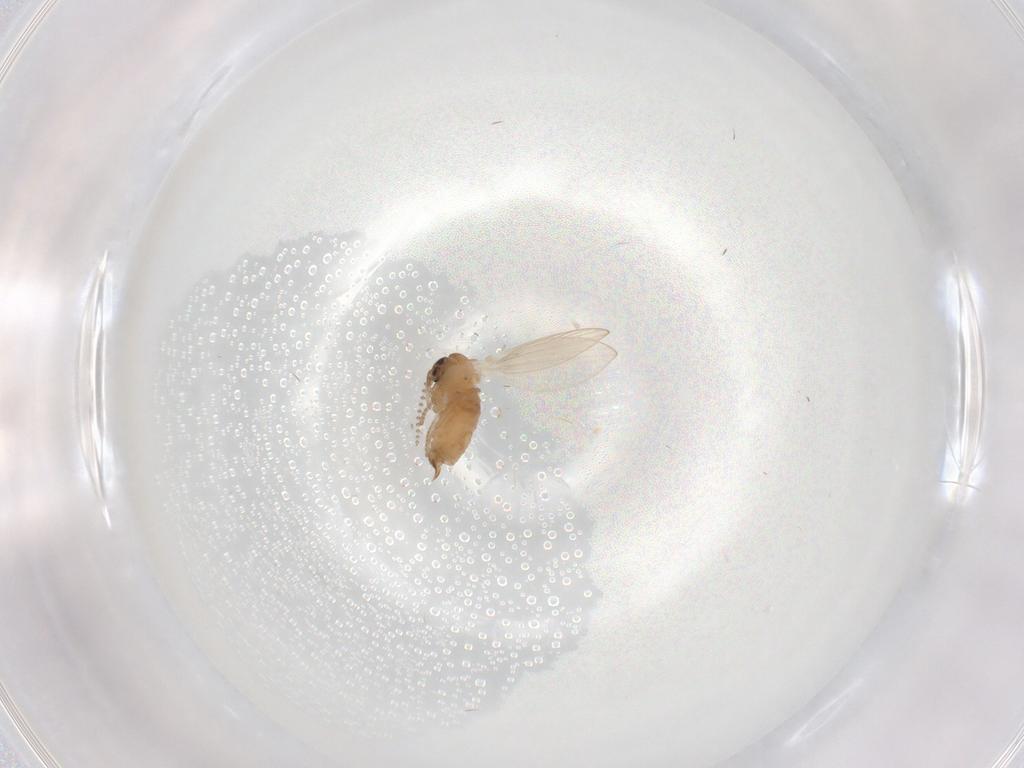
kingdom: Animalia
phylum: Arthropoda
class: Insecta
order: Diptera
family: Psychodidae
